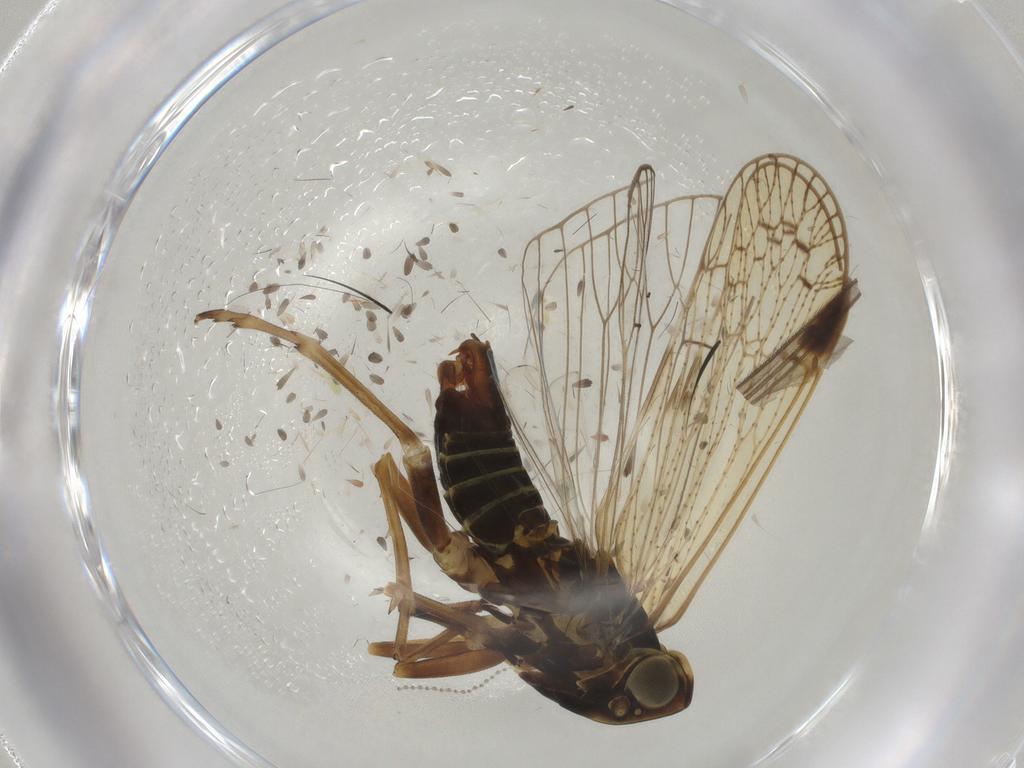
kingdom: Animalia
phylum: Arthropoda
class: Insecta
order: Hemiptera
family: Cixiidae
